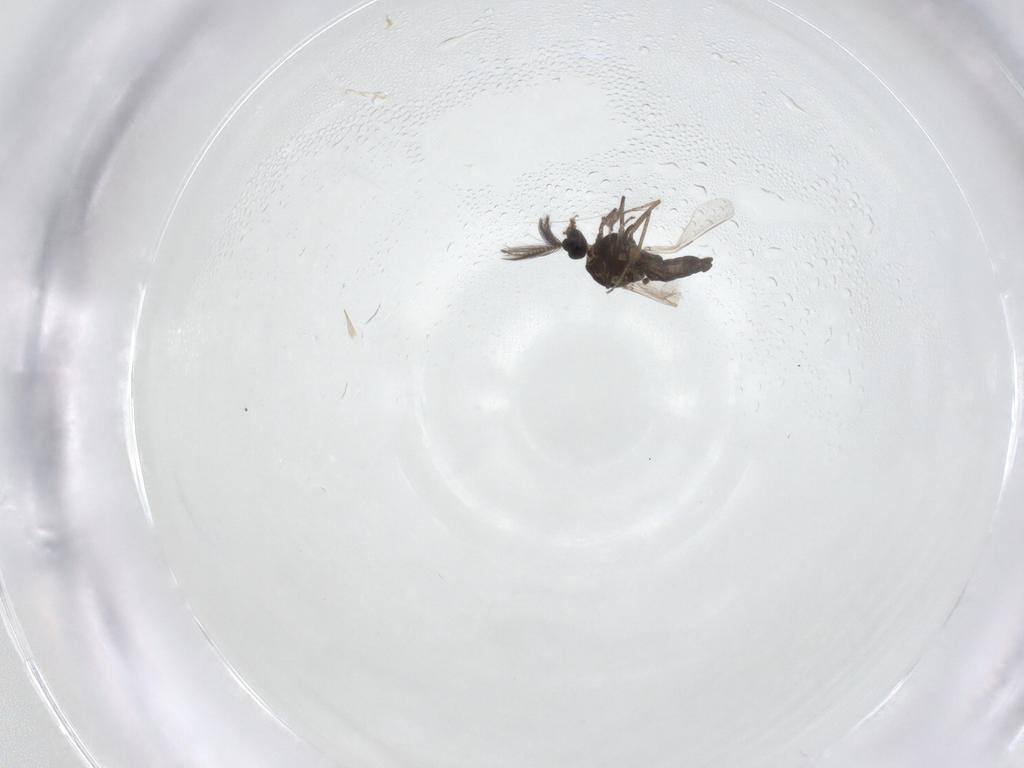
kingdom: Animalia
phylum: Arthropoda
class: Insecta
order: Diptera
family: Ceratopogonidae
